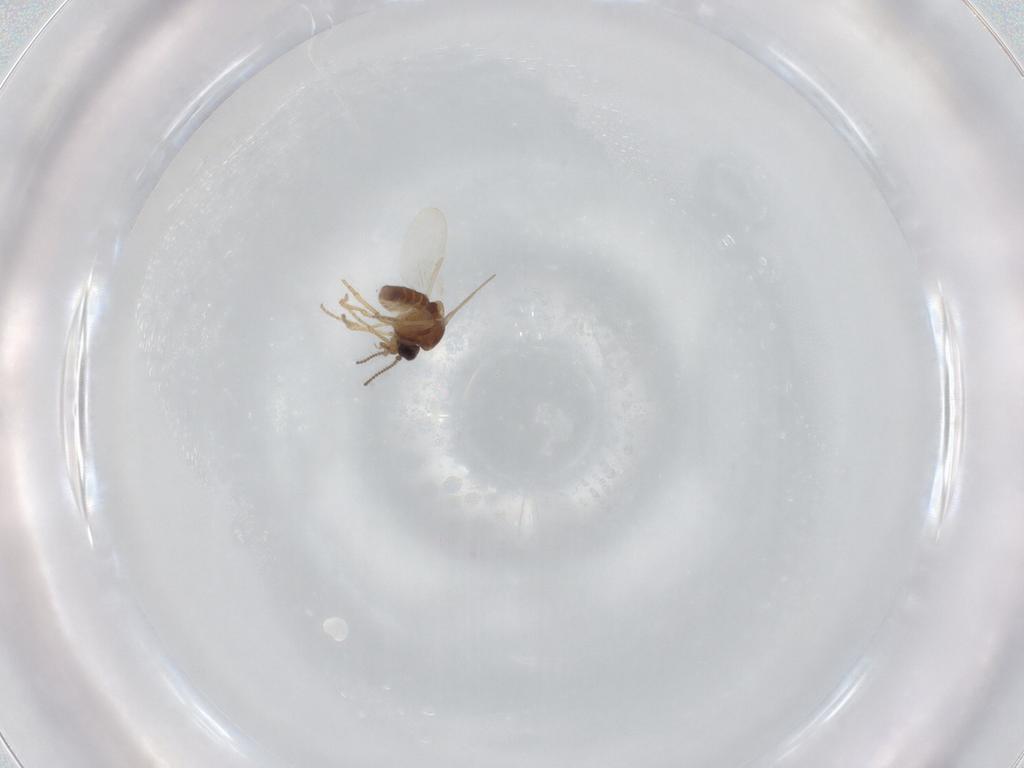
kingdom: Animalia
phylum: Arthropoda
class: Insecta
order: Diptera
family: Ceratopogonidae
